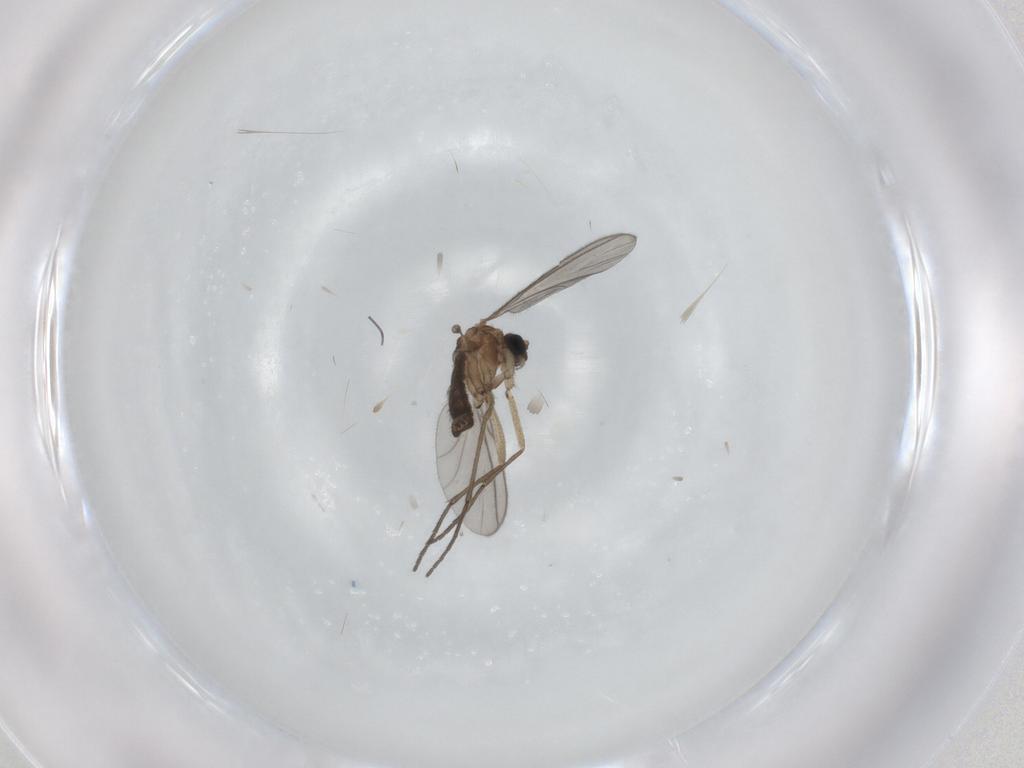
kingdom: Animalia
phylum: Arthropoda
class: Insecta
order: Diptera
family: Sciaridae
